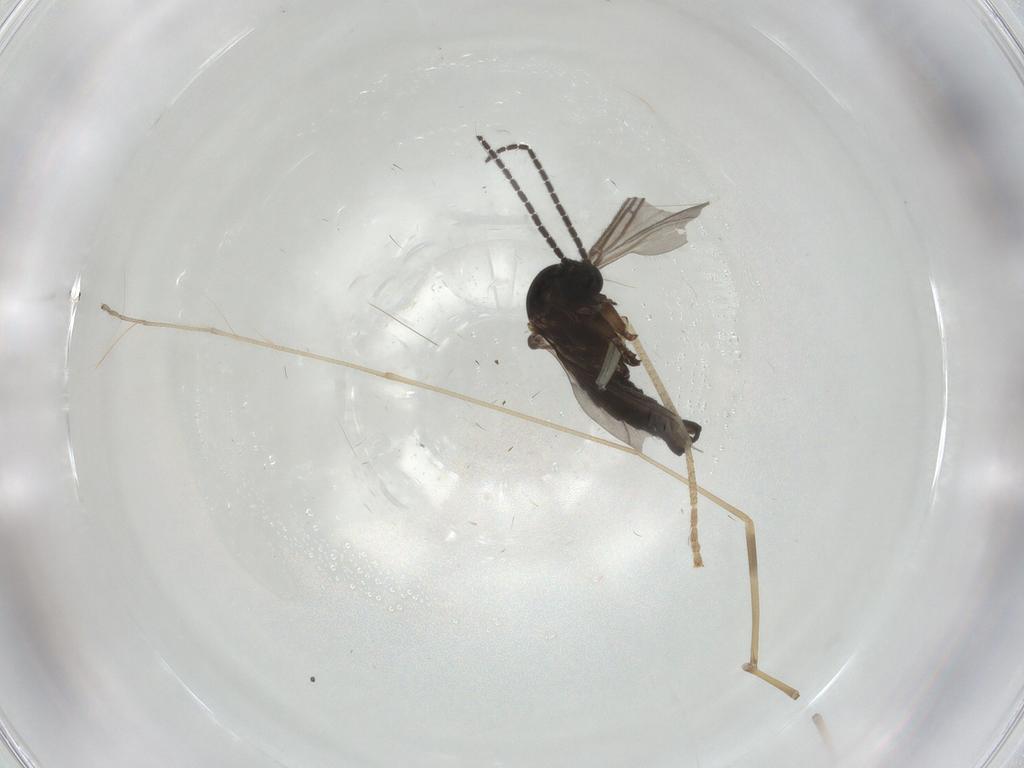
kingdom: Animalia
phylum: Arthropoda
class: Insecta
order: Diptera
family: Sciaridae
